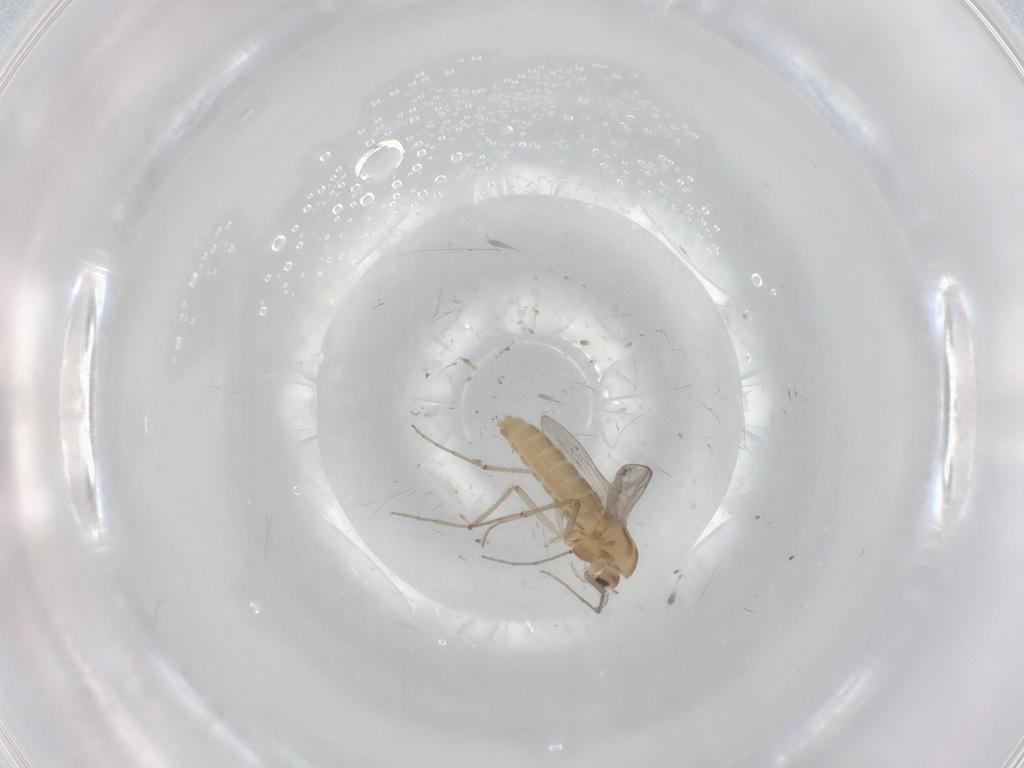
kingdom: Animalia
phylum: Arthropoda
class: Insecta
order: Diptera
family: Chironomidae
